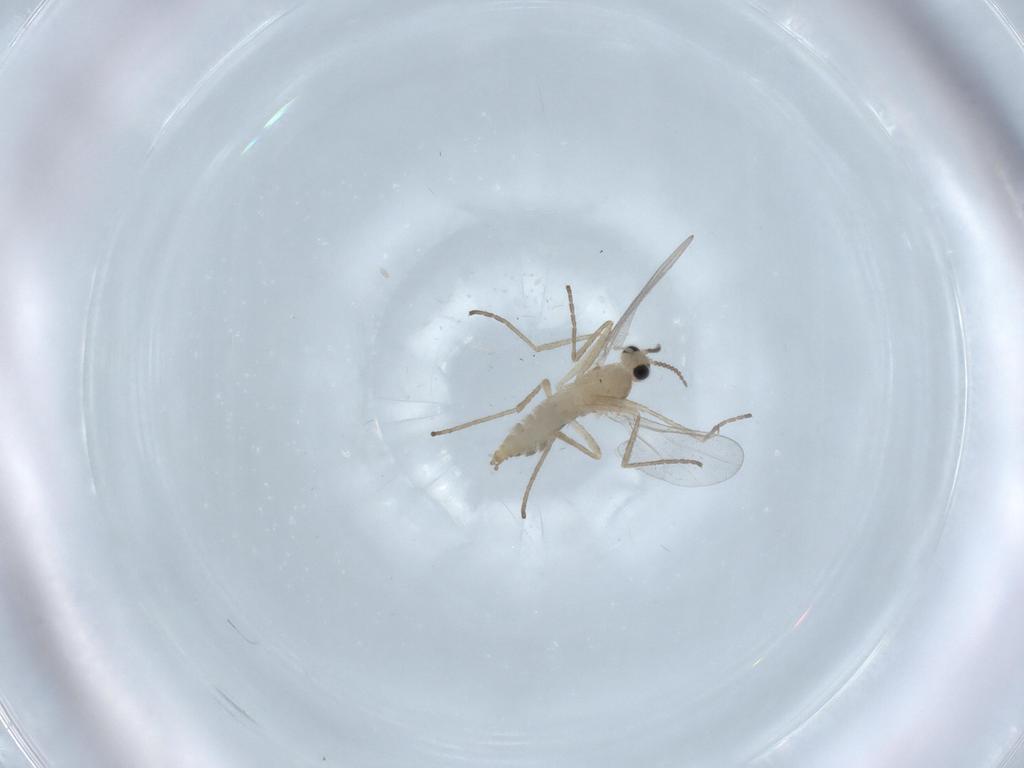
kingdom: Animalia
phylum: Arthropoda
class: Insecta
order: Diptera
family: Cecidomyiidae
